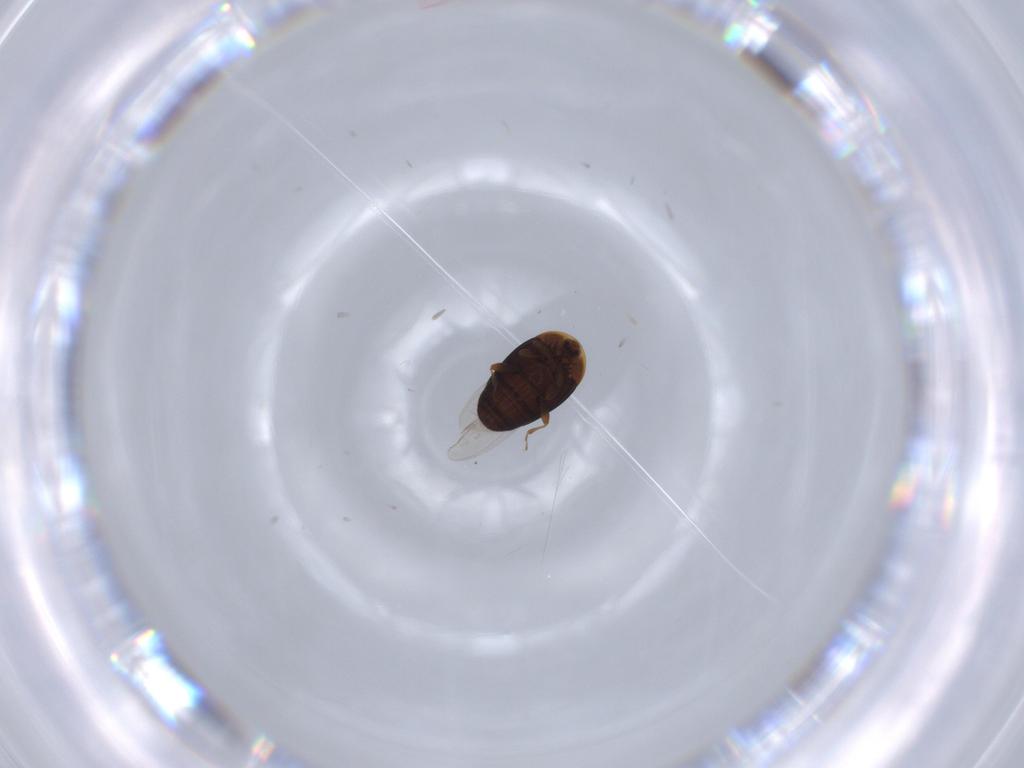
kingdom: Animalia
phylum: Arthropoda
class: Insecta
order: Coleoptera
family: Corylophidae
